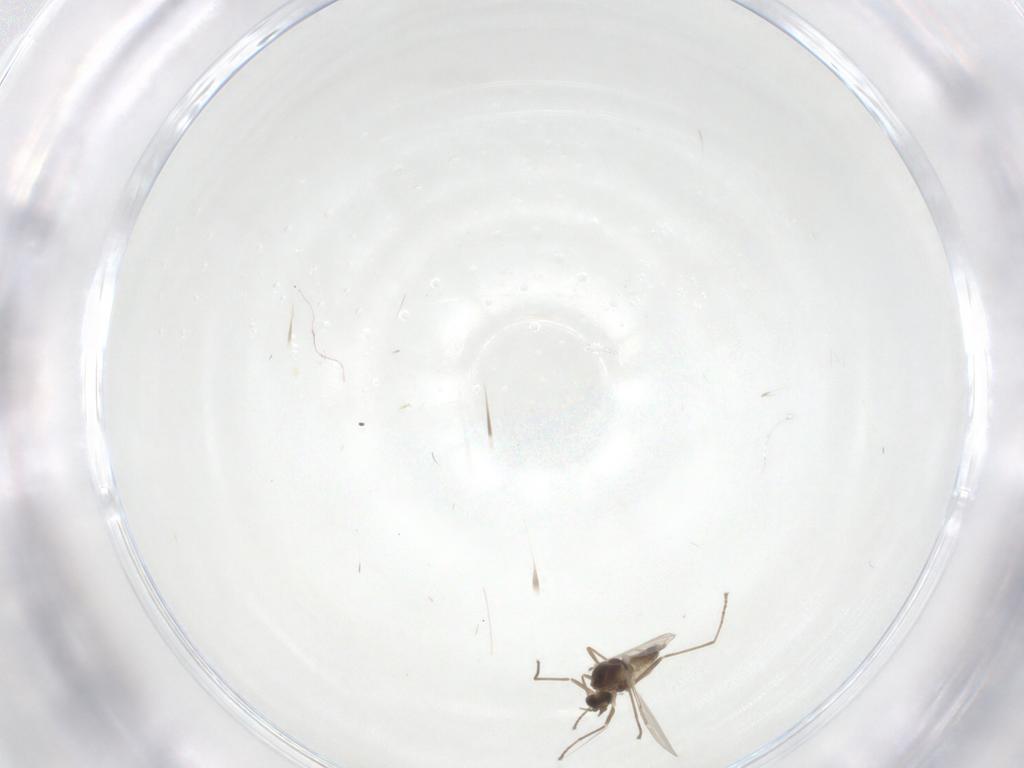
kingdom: Animalia
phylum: Arthropoda
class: Insecta
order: Diptera
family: Cecidomyiidae
